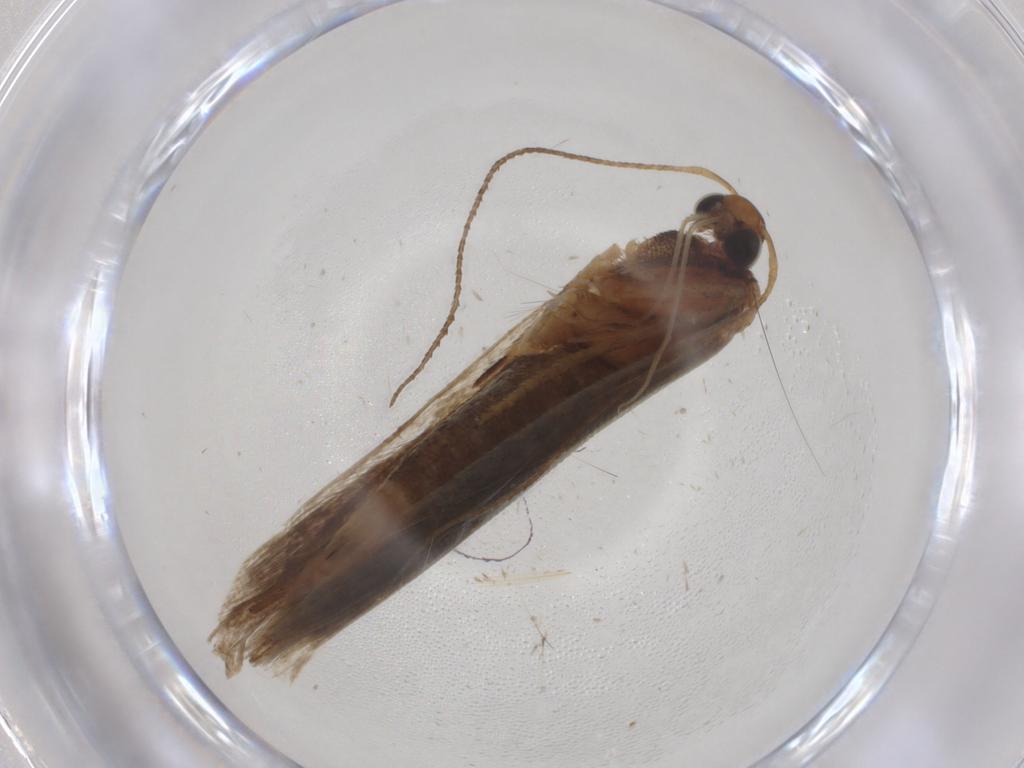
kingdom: Animalia
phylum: Arthropoda
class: Insecta
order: Lepidoptera
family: Gelechiidae
